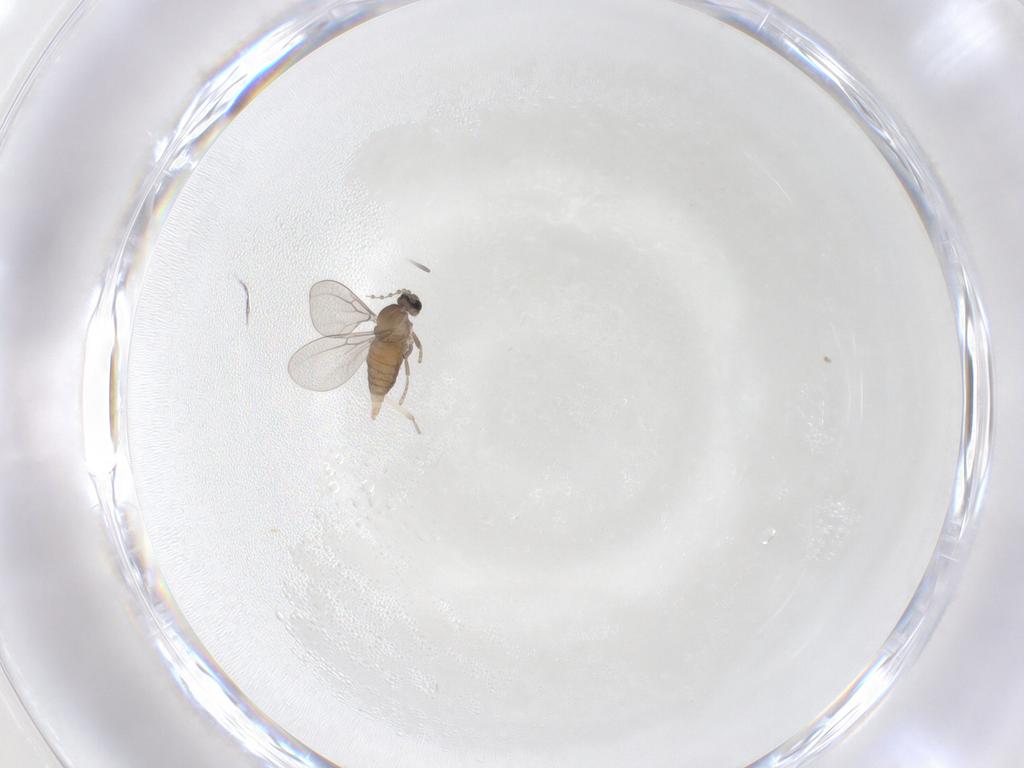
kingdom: Animalia
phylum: Arthropoda
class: Insecta
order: Diptera
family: Cecidomyiidae
